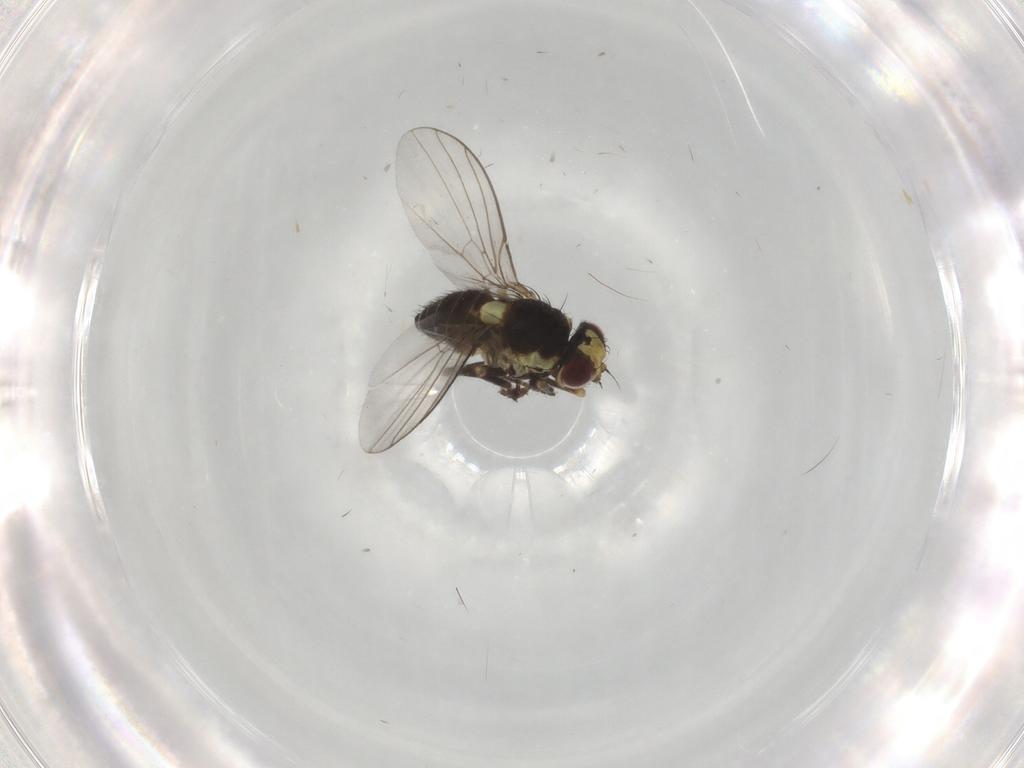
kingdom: Animalia
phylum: Arthropoda
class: Insecta
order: Diptera
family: Agromyzidae
